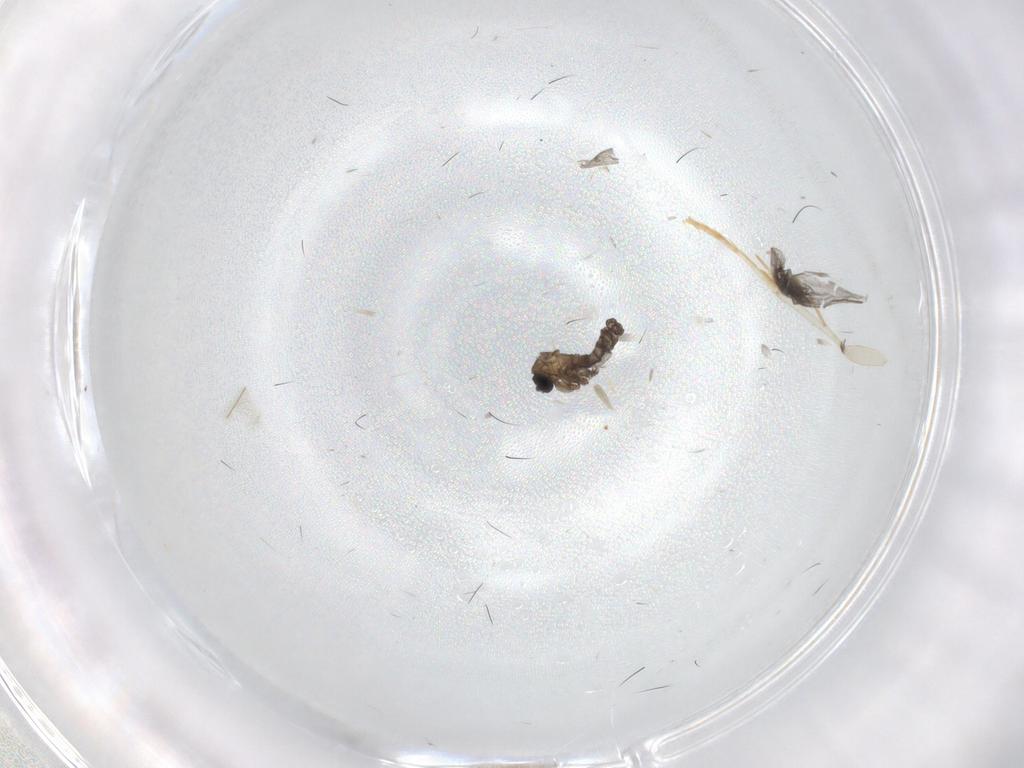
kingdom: Animalia
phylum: Arthropoda
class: Insecta
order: Diptera
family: Sciaridae
